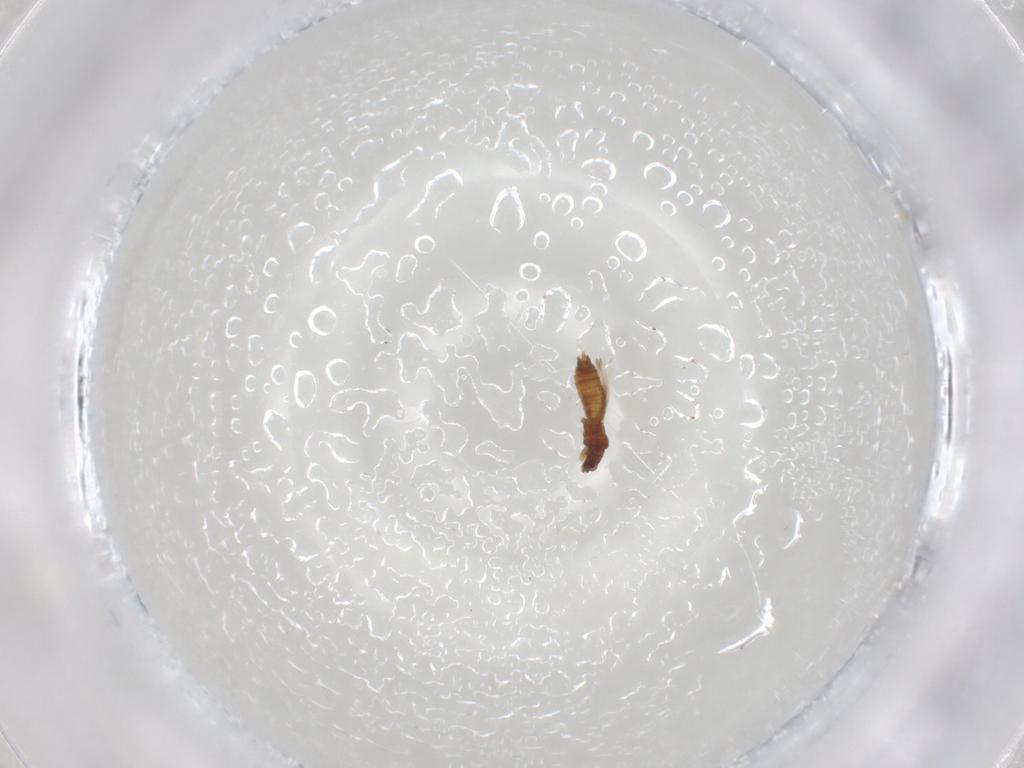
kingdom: Animalia
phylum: Arthropoda
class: Insecta
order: Thysanoptera
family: Thripidae
